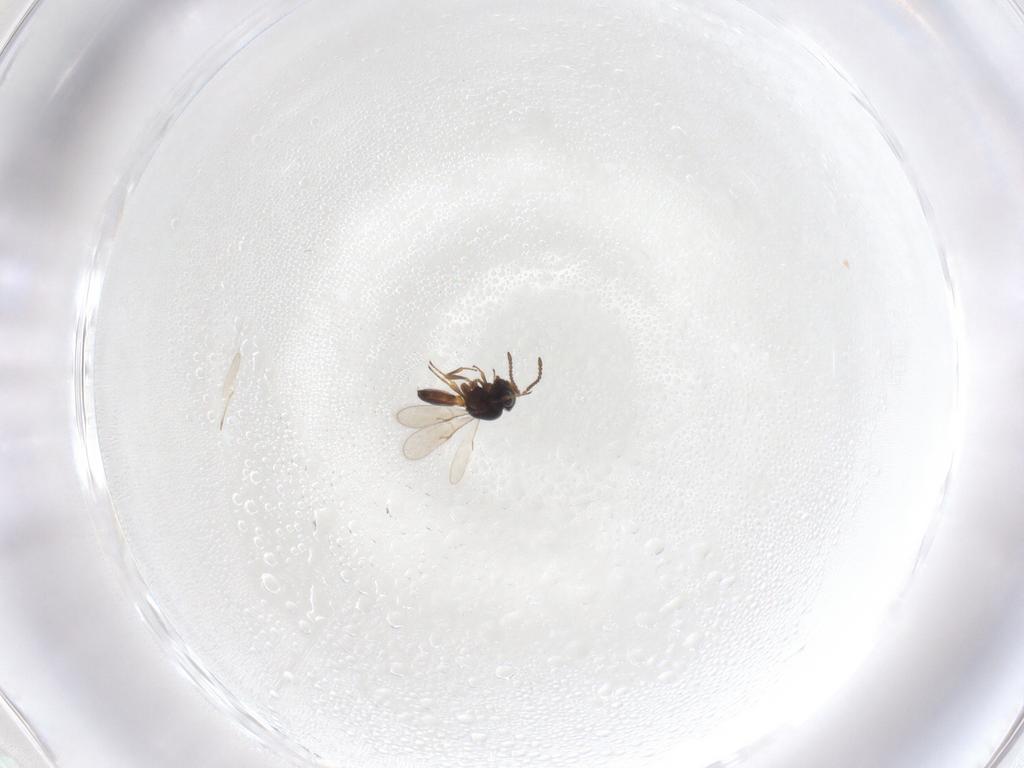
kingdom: Animalia
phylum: Arthropoda
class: Insecta
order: Hymenoptera
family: Scelionidae
